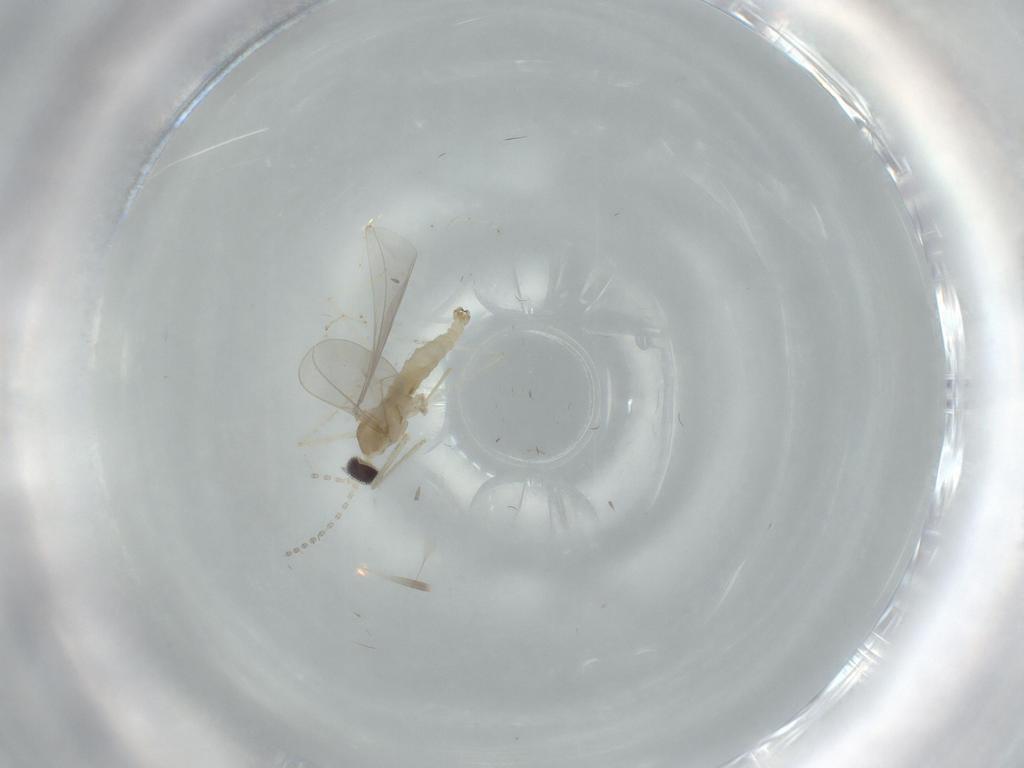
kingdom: Animalia
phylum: Arthropoda
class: Insecta
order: Diptera
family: Cecidomyiidae
